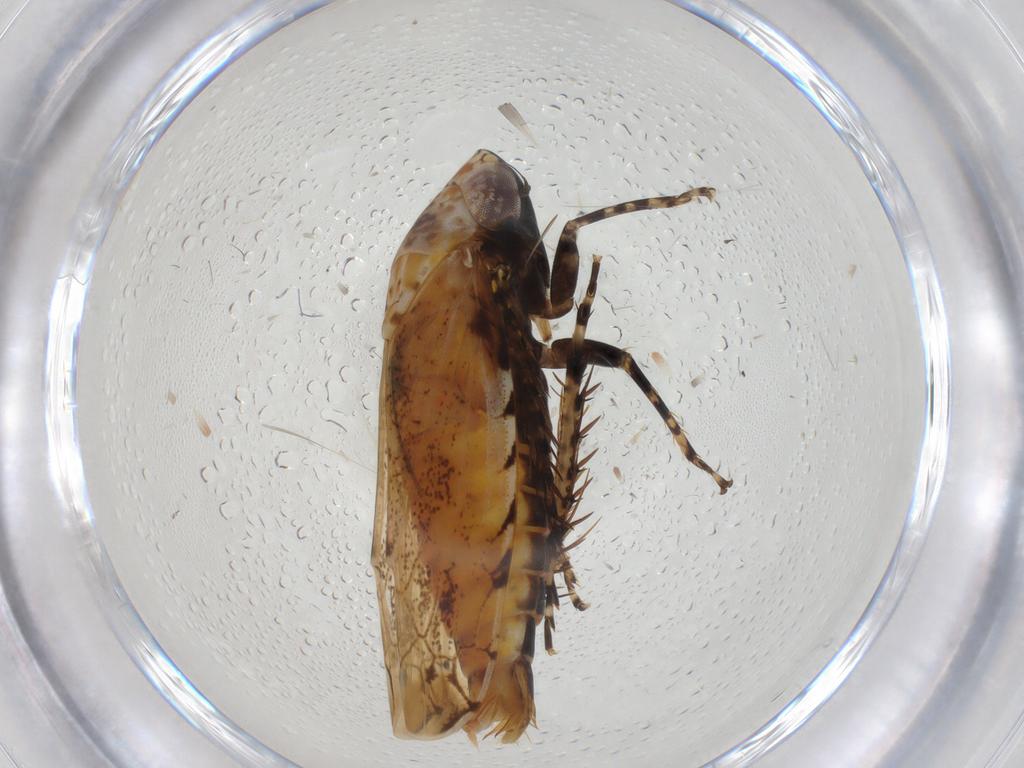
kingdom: Animalia
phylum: Arthropoda
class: Insecta
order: Hemiptera
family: Cicadellidae
